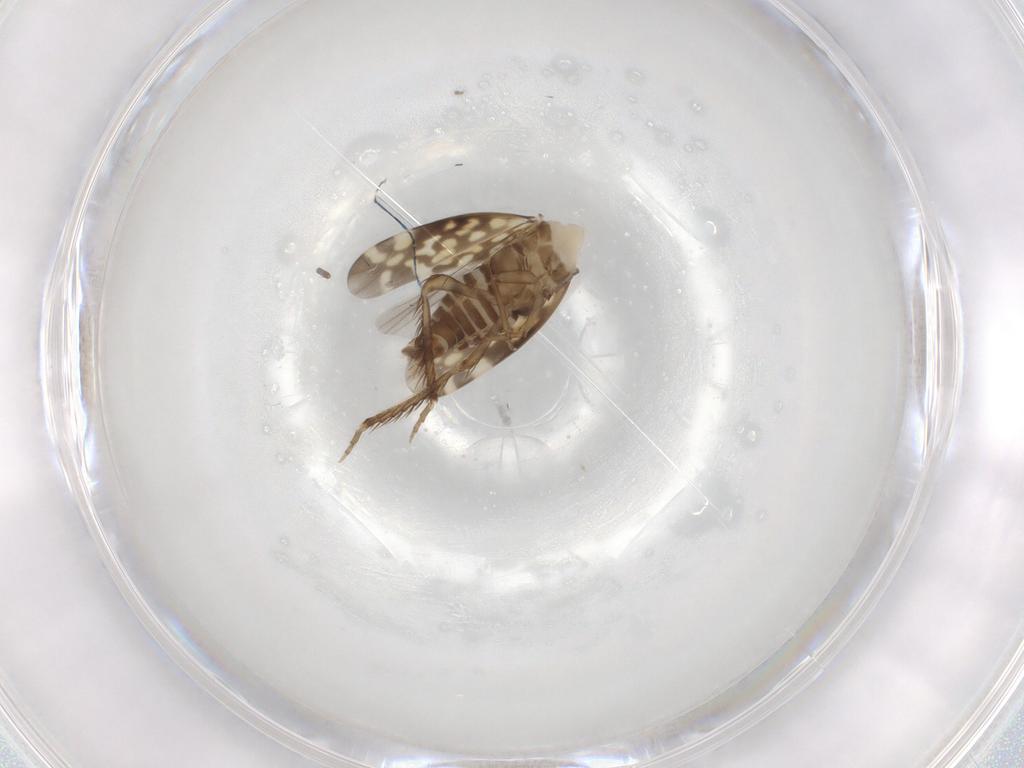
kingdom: Animalia
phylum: Arthropoda
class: Insecta
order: Hemiptera
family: Cicadellidae
